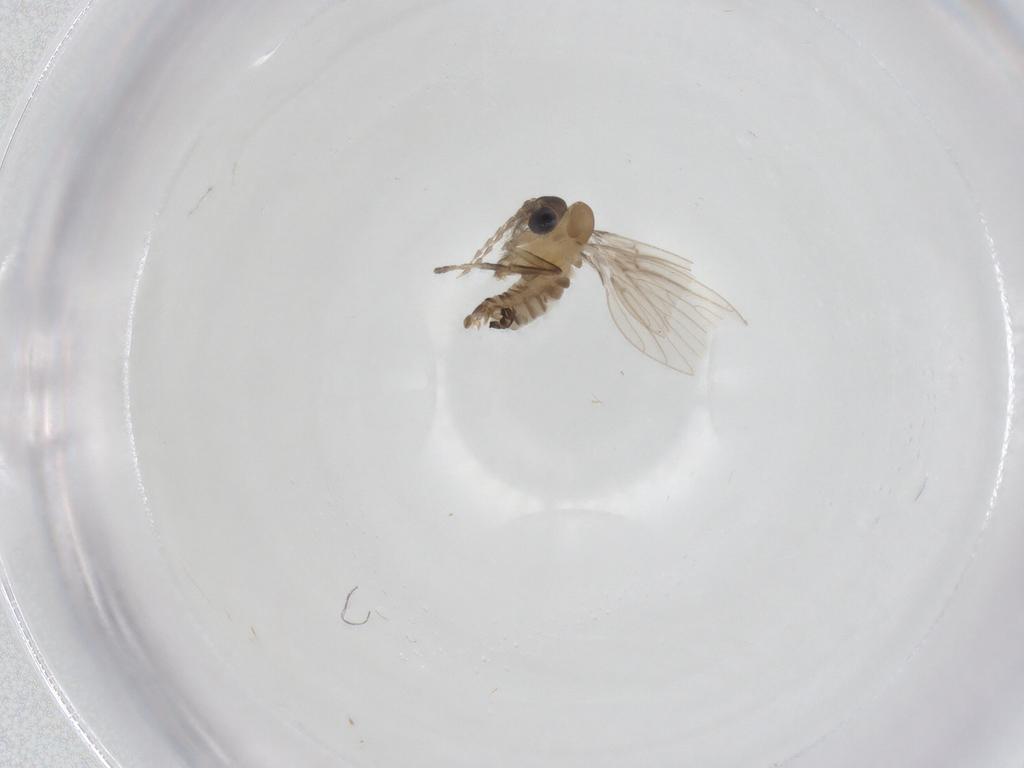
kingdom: Animalia
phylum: Arthropoda
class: Insecta
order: Diptera
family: Psychodidae
